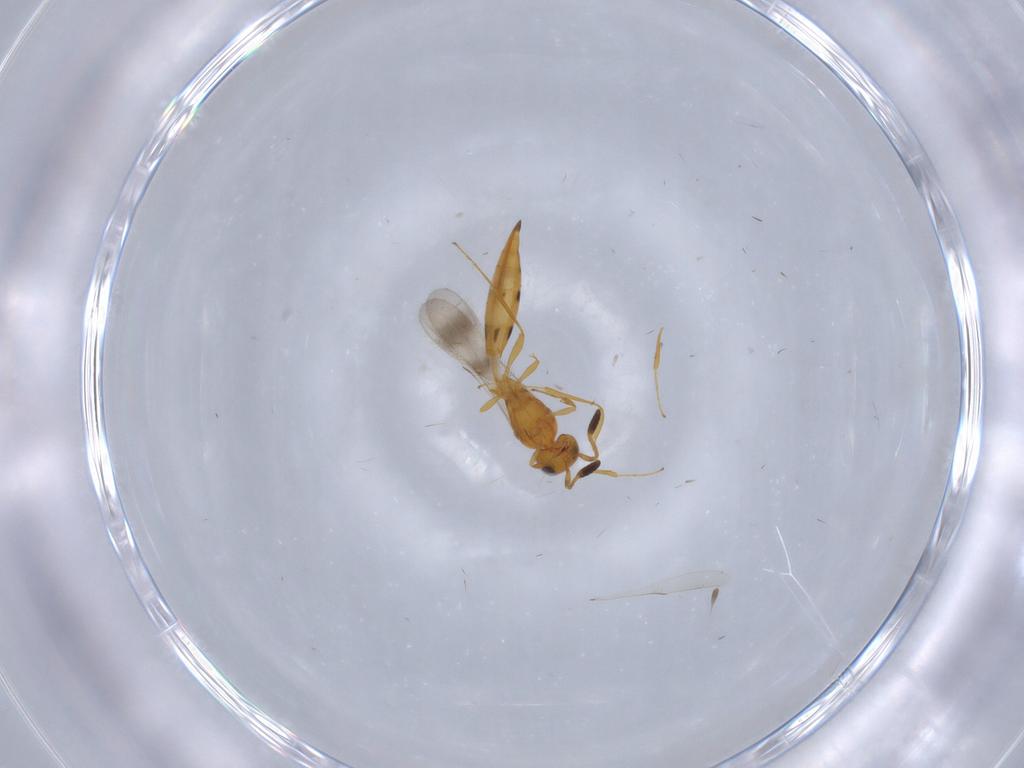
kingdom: Animalia
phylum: Arthropoda
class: Insecta
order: Hymenoptera
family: Scelionidae
